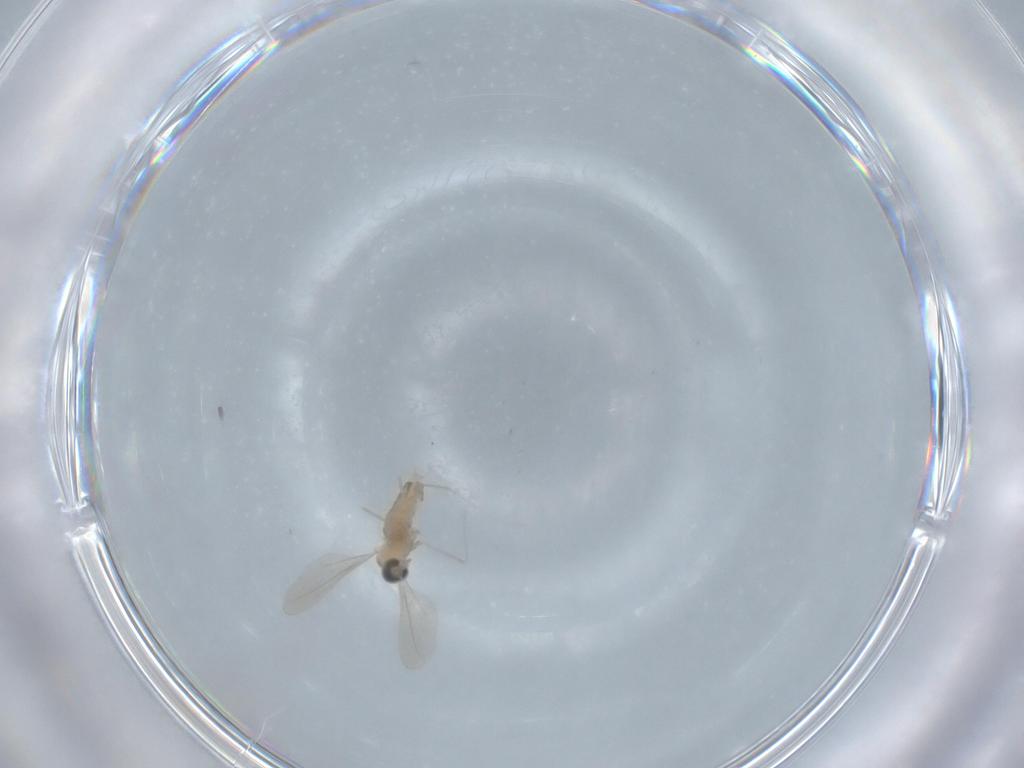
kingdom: Animalia
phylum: Arthropoda
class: Insecta
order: Diptera
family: Cecidomyiidae
